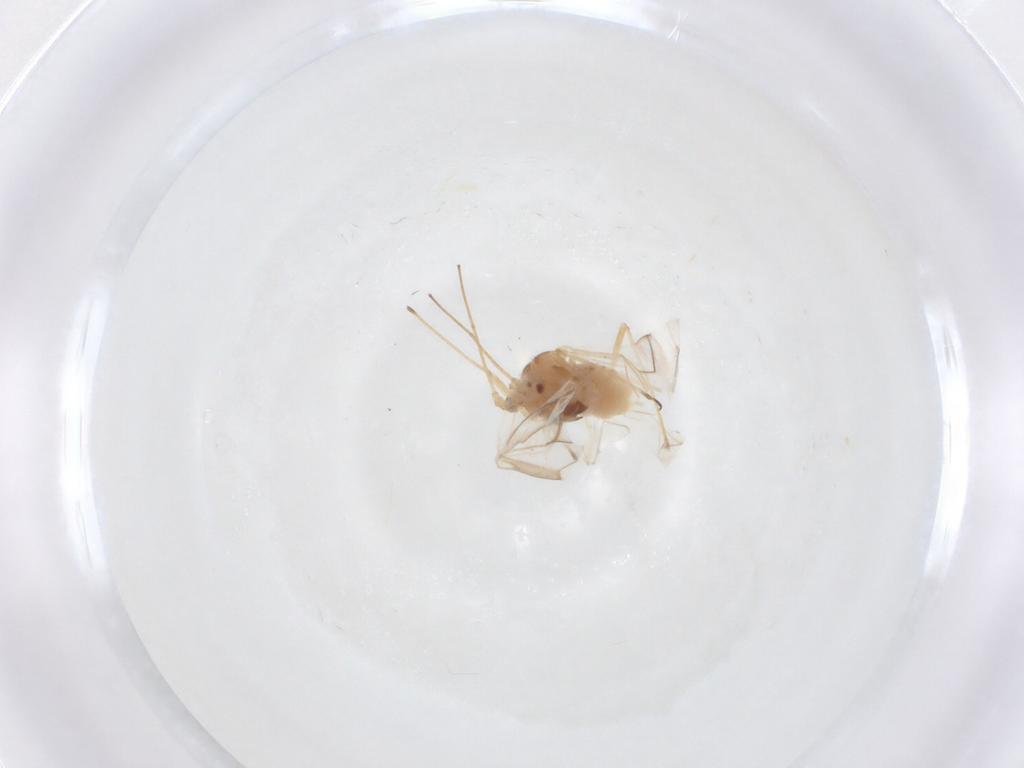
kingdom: Animalia
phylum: Arthropoda
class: Insecta
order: Hemiptera
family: Aphididae
